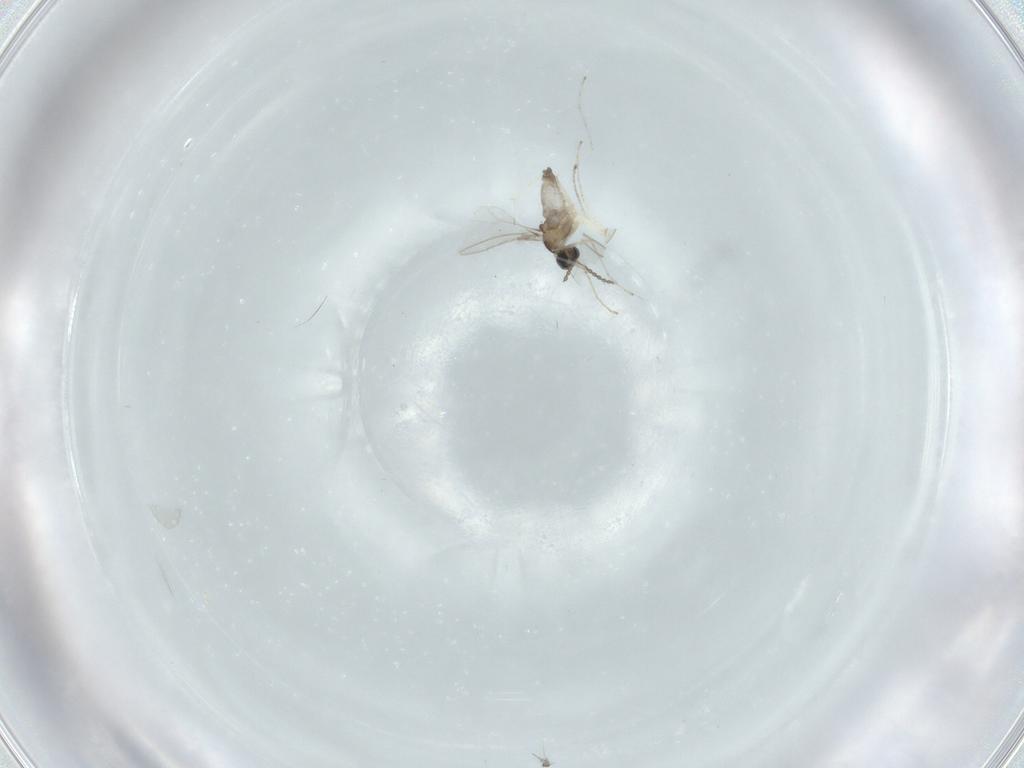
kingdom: Animalia
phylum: Arthropoda
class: Insecta
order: Diptera
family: Cecidomyiidae
